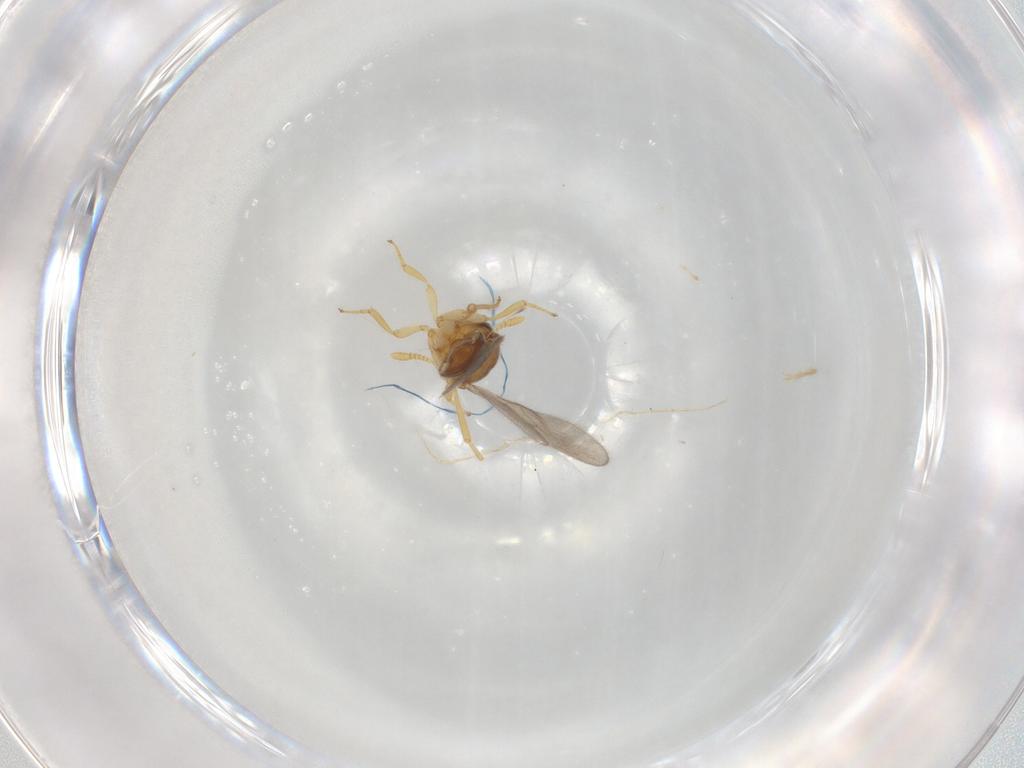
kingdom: Animalia
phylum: Arthropoda
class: Insecta
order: Hymenoptera
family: Scelionidae
